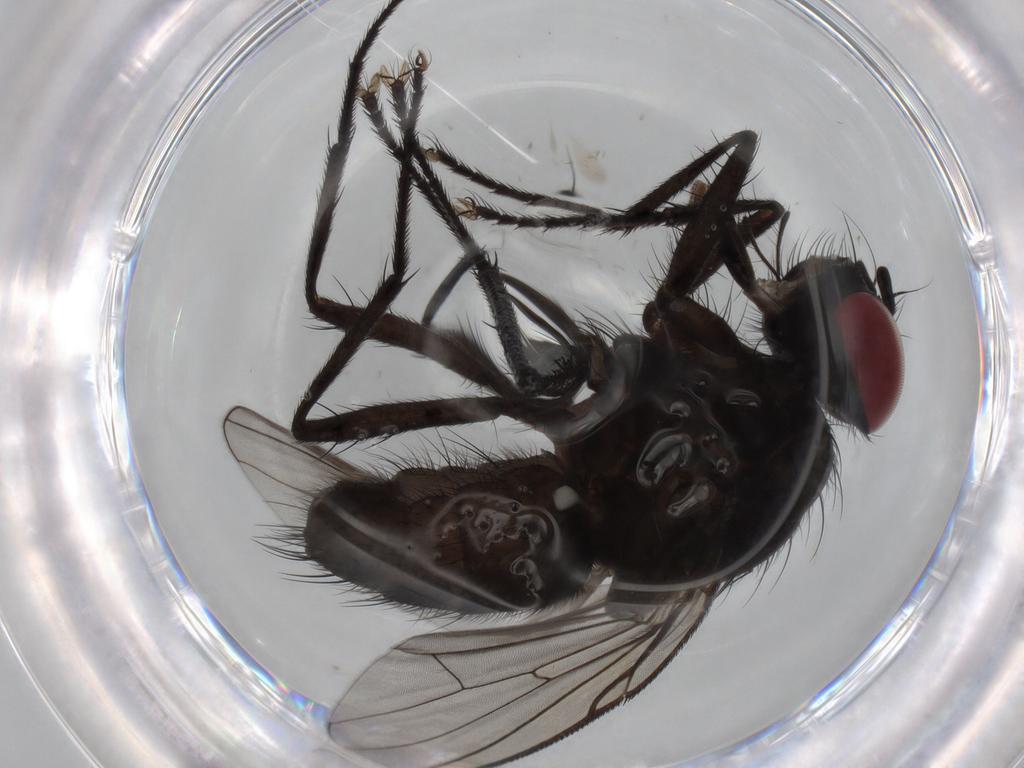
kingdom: Animalia
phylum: Arthropoda
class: Insecta
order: Diptera
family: Muscidae
